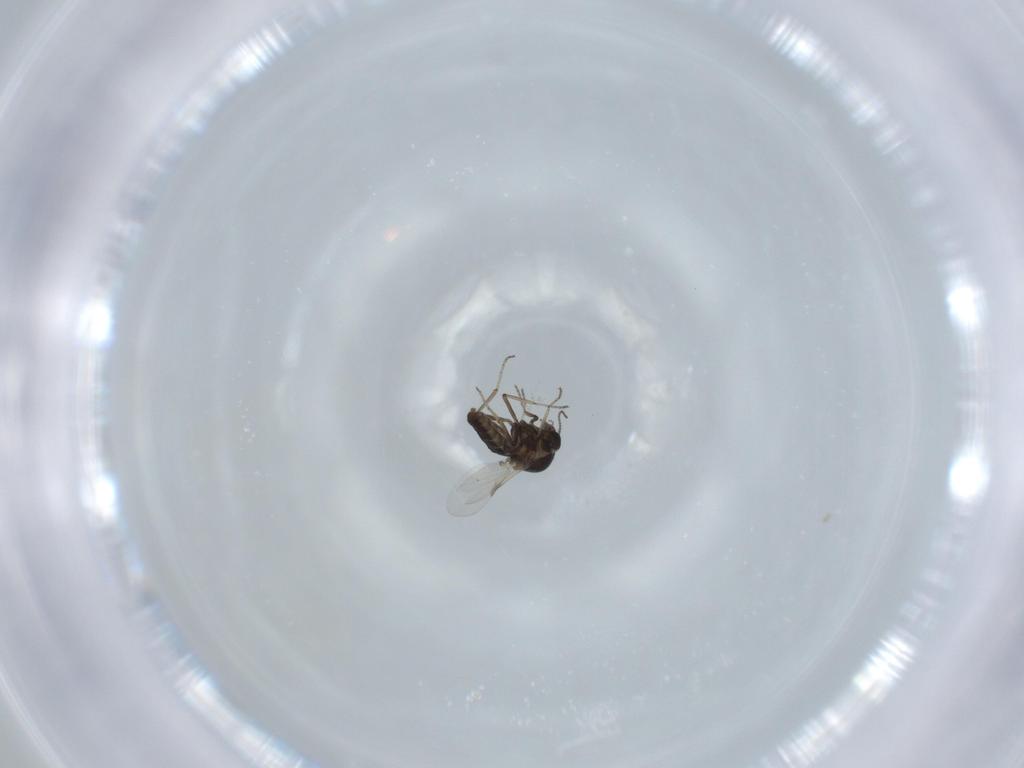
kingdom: Animalia
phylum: Arthropoda
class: Insecta
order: Diptera
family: Ceratopogonidae
